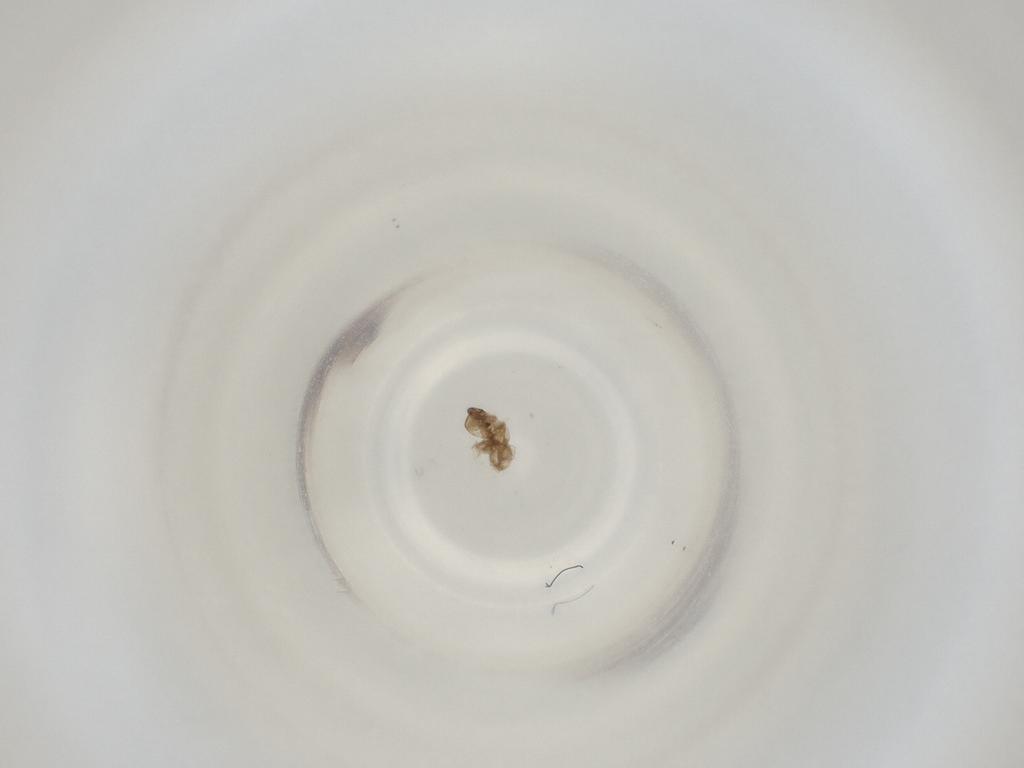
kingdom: Animalia
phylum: Arthropoda
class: Insecta
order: Diptera
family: Cecidomyiidae
